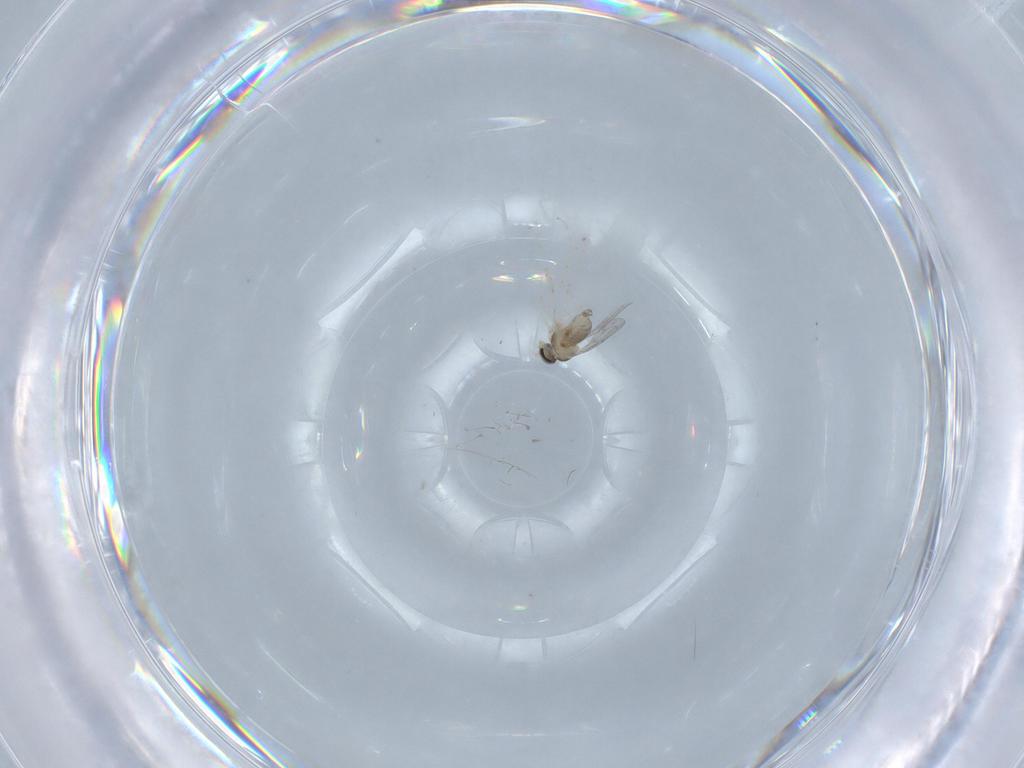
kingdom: Animalia
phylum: Arthropoda
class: Insecta
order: Diptera
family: Cecidomyiidae
